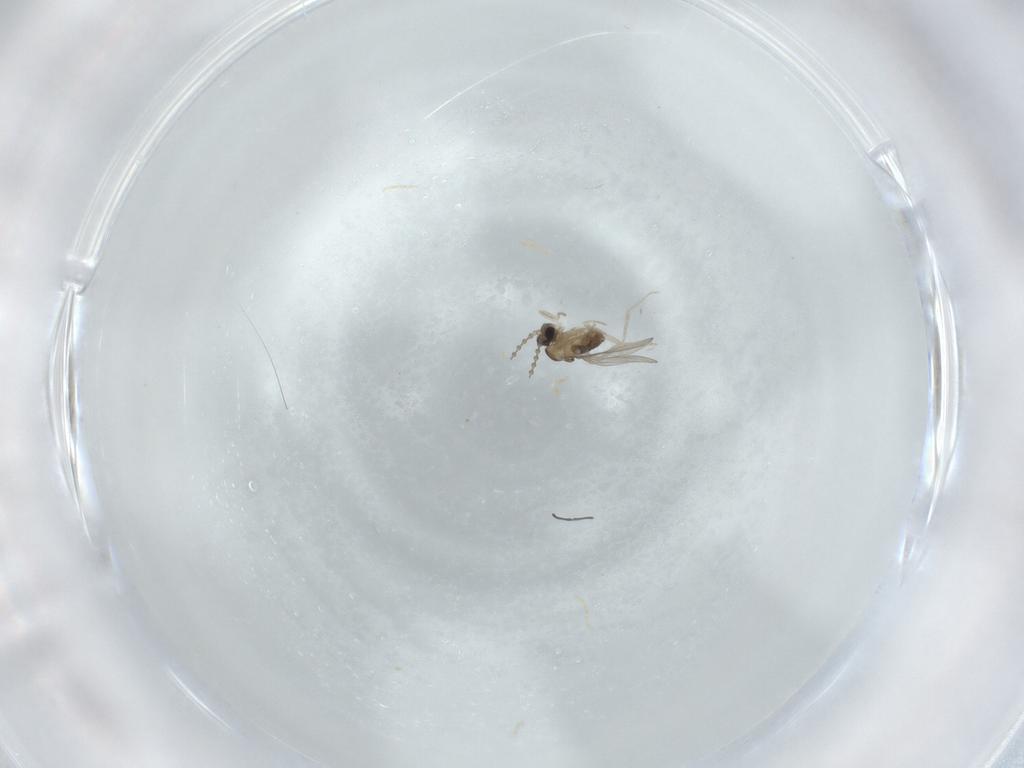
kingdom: Animalia
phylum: Arthropoda
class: Insecta
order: Diptera
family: Cecidomyiidae
